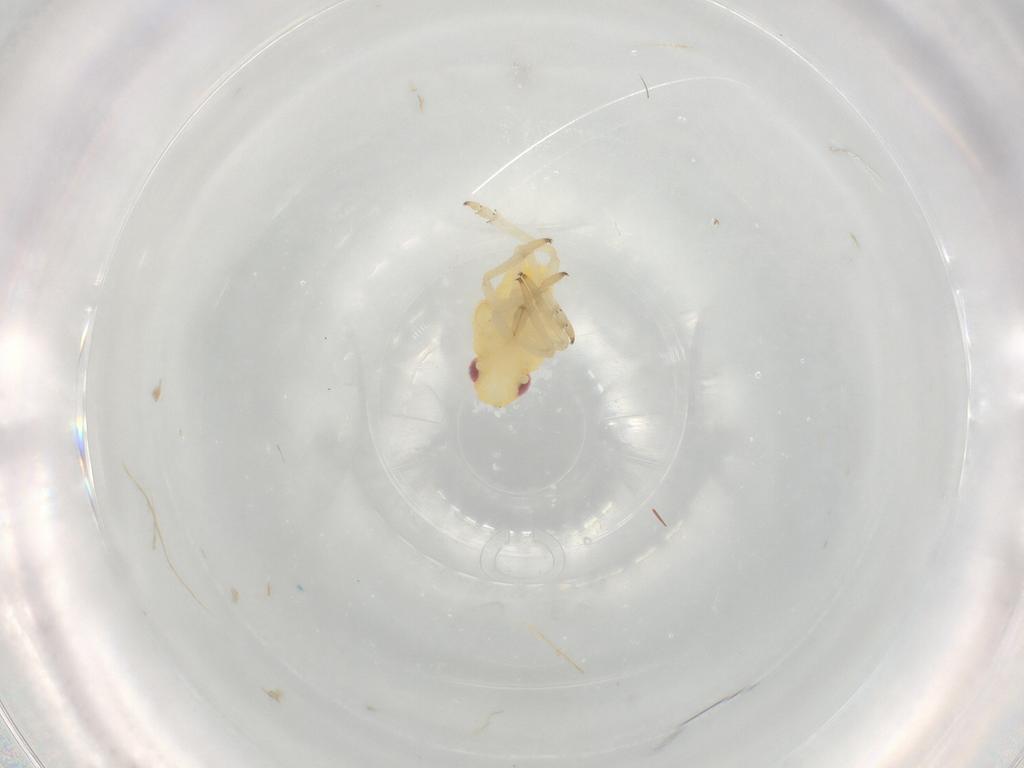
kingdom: Animalia
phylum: Arthropoda
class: Insecta
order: Hemiptera
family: Caliscelidae
